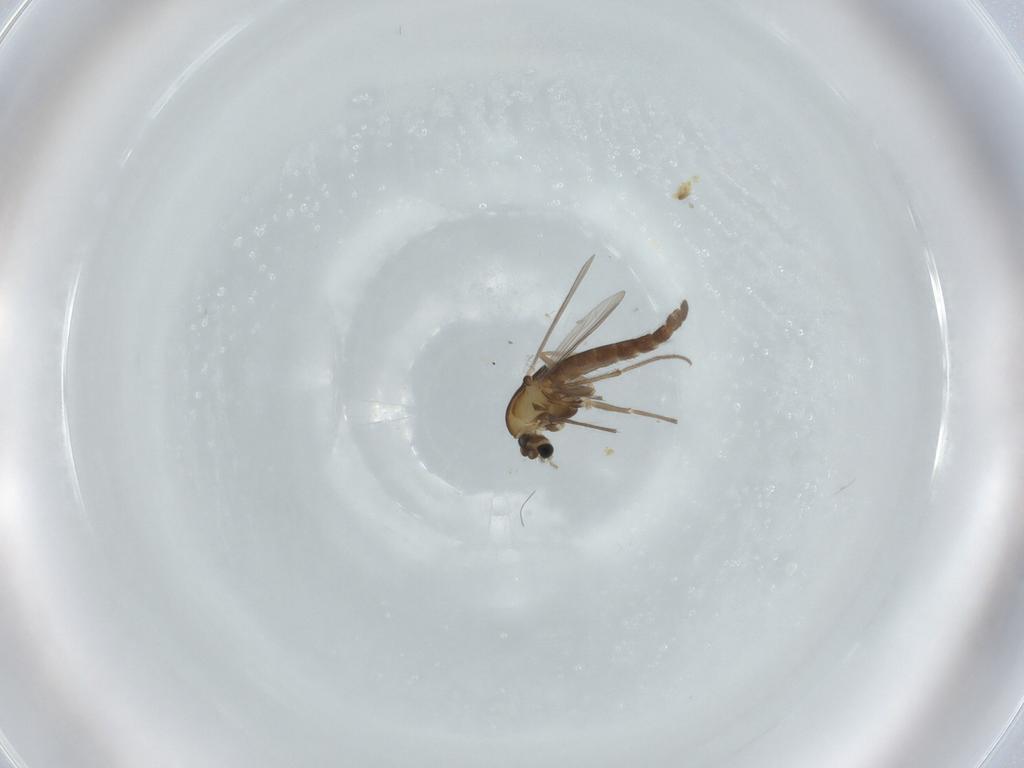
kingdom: Animalia
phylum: Arthropoda
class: Insecta
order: Diptera
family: Chironomidae
